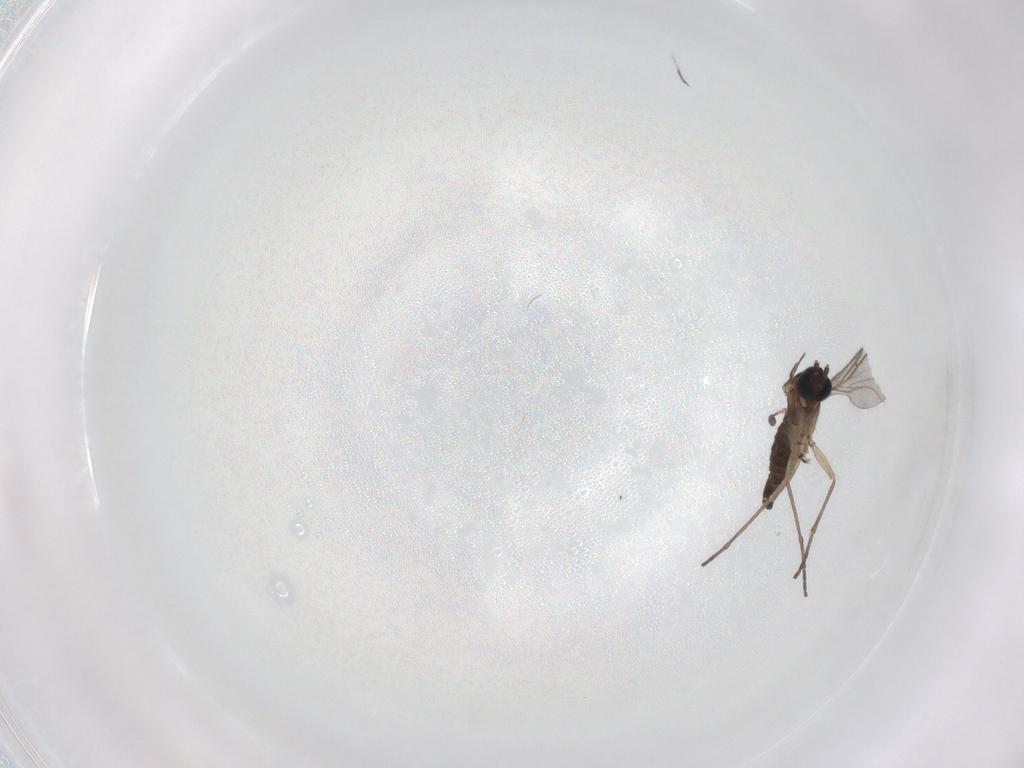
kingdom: Animalia
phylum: Arthropoda
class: Insecta
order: Diptera
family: Sciaridae
